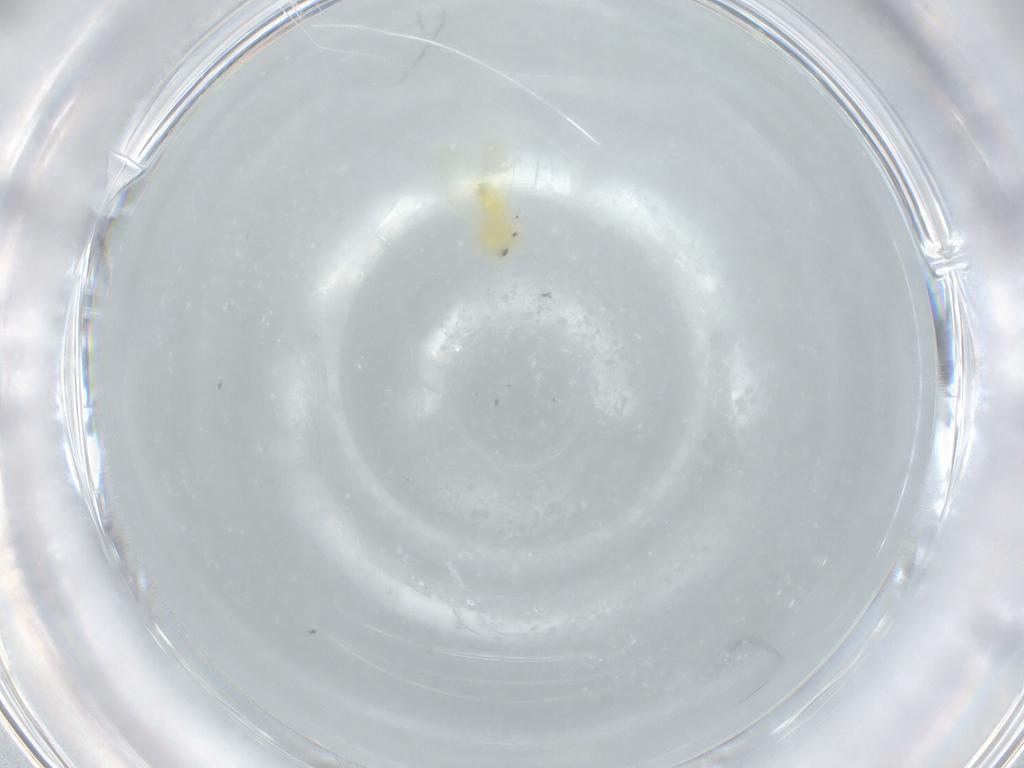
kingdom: Animalia
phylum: Arthropoda
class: Insecta
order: Hemiptera
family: Aleyrodidae
